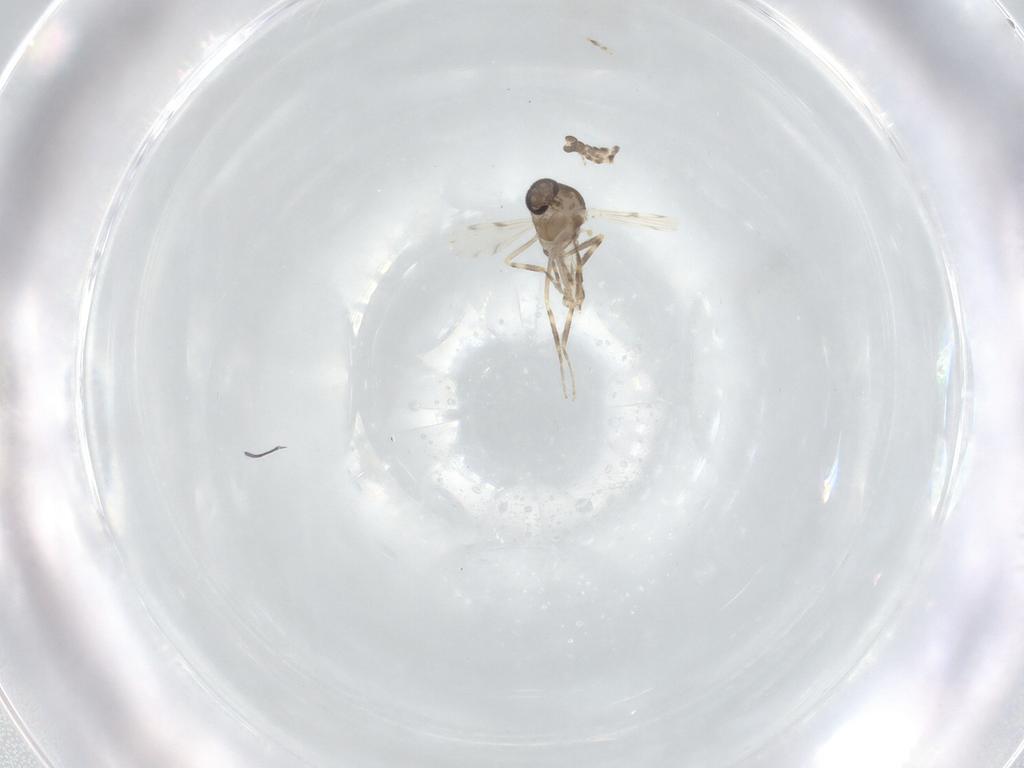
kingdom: Animalia
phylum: Arthropoda
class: Insecta
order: Diptera
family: Ceratopogonidae
